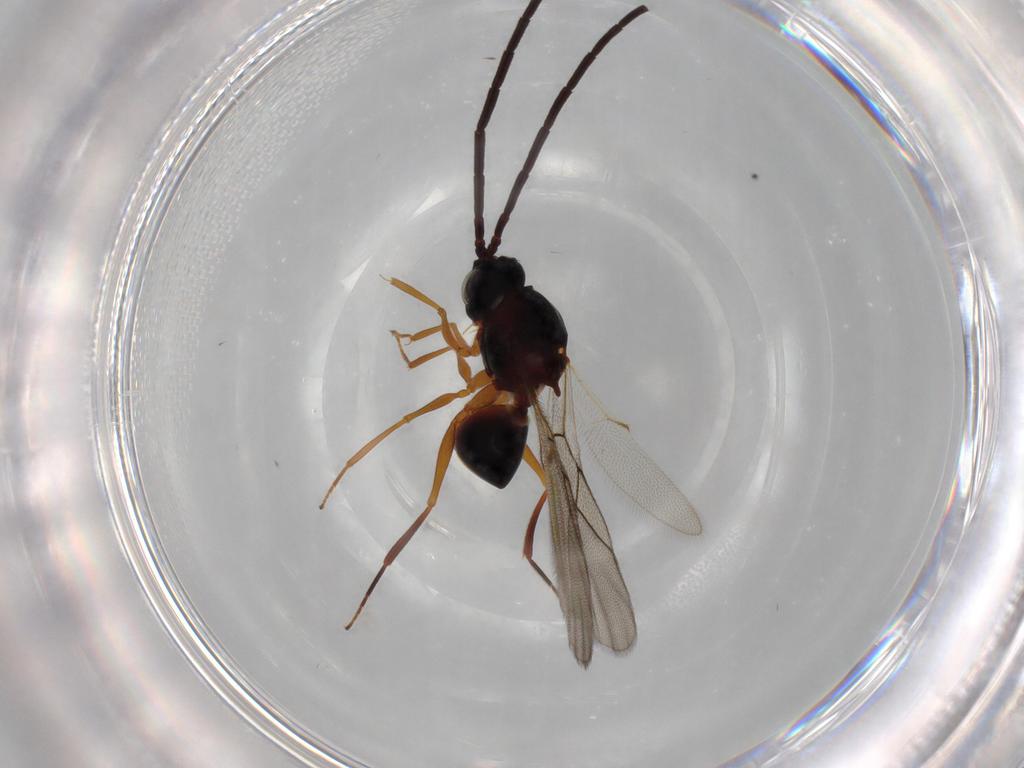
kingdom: Animalia
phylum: Arthropoda
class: Insecta
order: Hymenoptera
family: Figitidae
